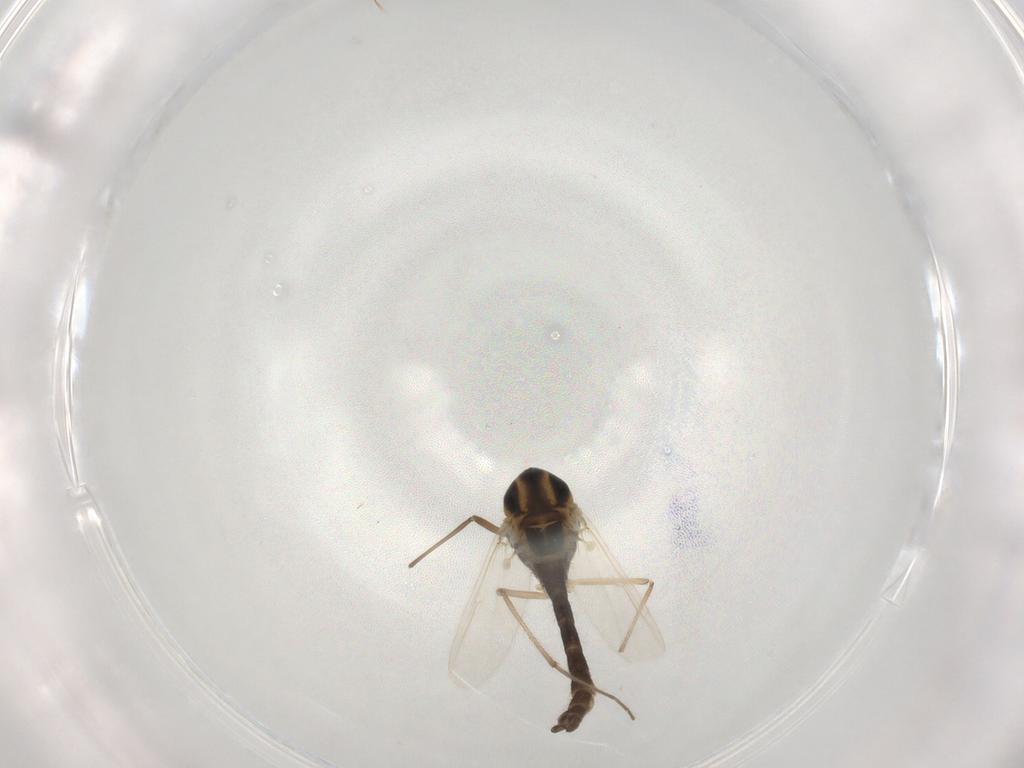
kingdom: Animalia
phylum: Arthropoda
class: Insecta
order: Diptera
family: Chironomidae
